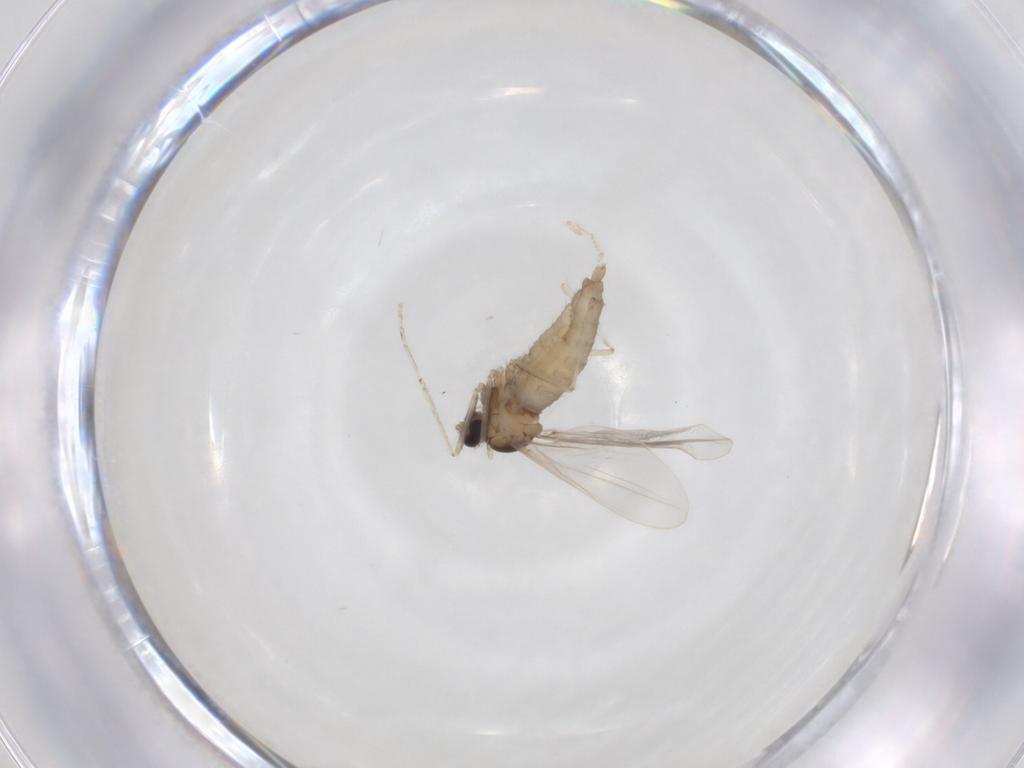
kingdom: Animalia
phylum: Arthropoda
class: Insecta
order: Diptera
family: Cecidomyiidae
